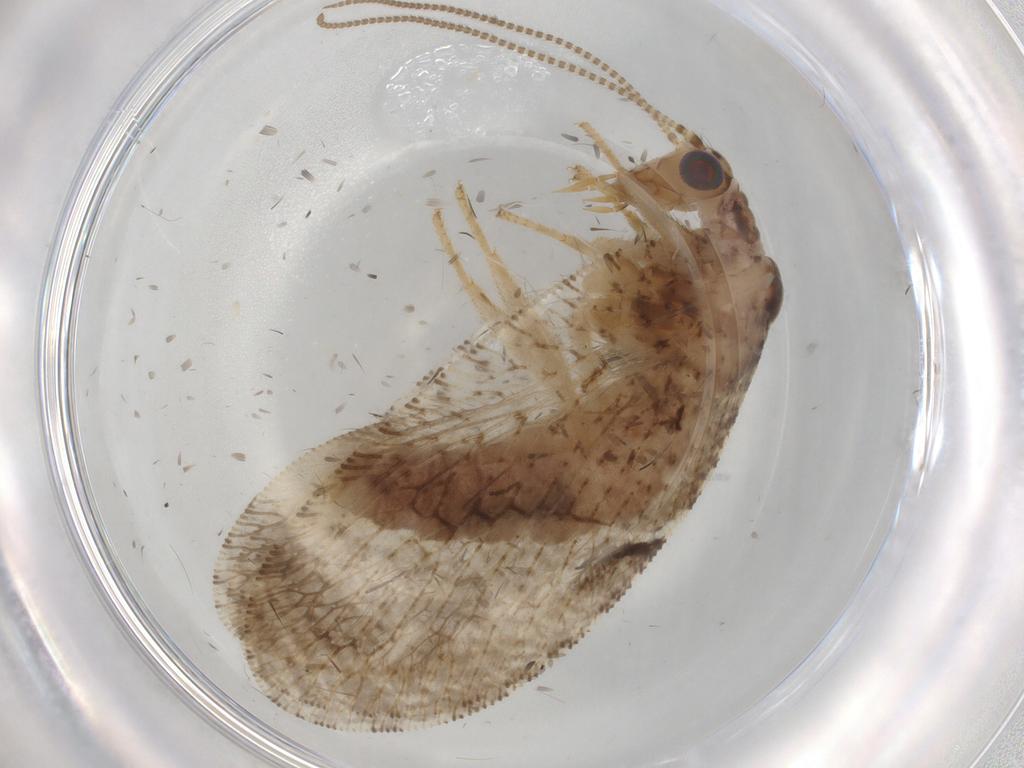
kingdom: Animalia
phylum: Arthropoda
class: Insecta
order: Neuroptera
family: Hemerobiidae
